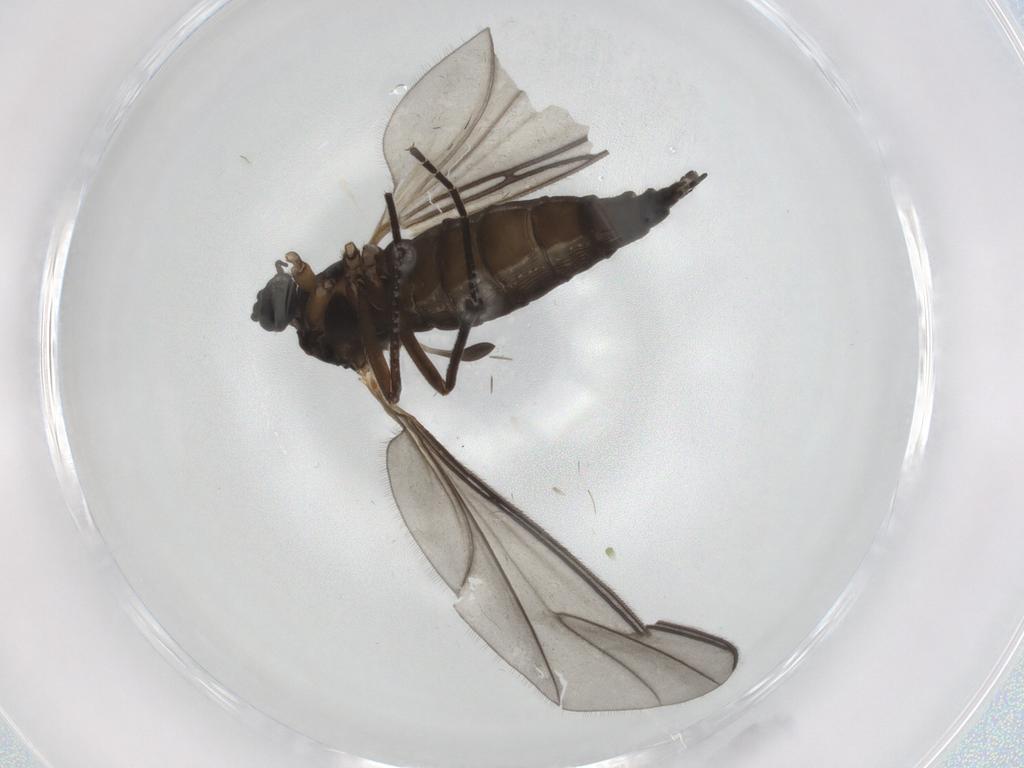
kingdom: Animalia
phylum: Arthropoda
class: Insecta
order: Diptera
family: Sciaridae
